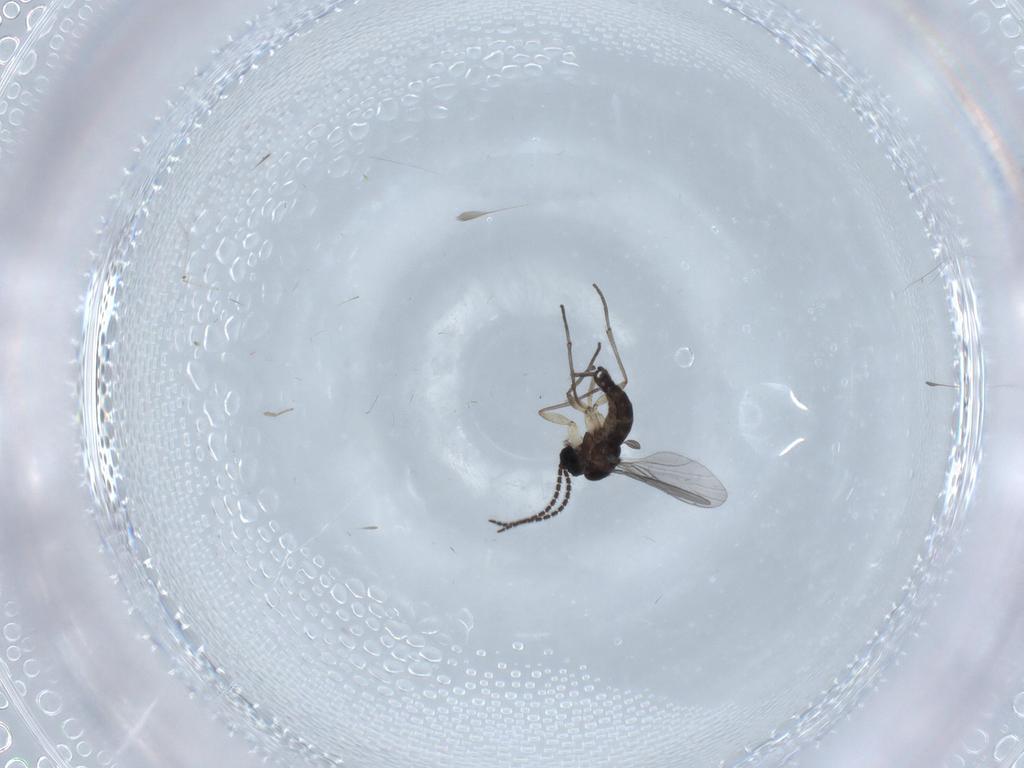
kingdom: Animalia
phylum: Arthropoda
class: Insecta
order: Diptera
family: Sciaridae
